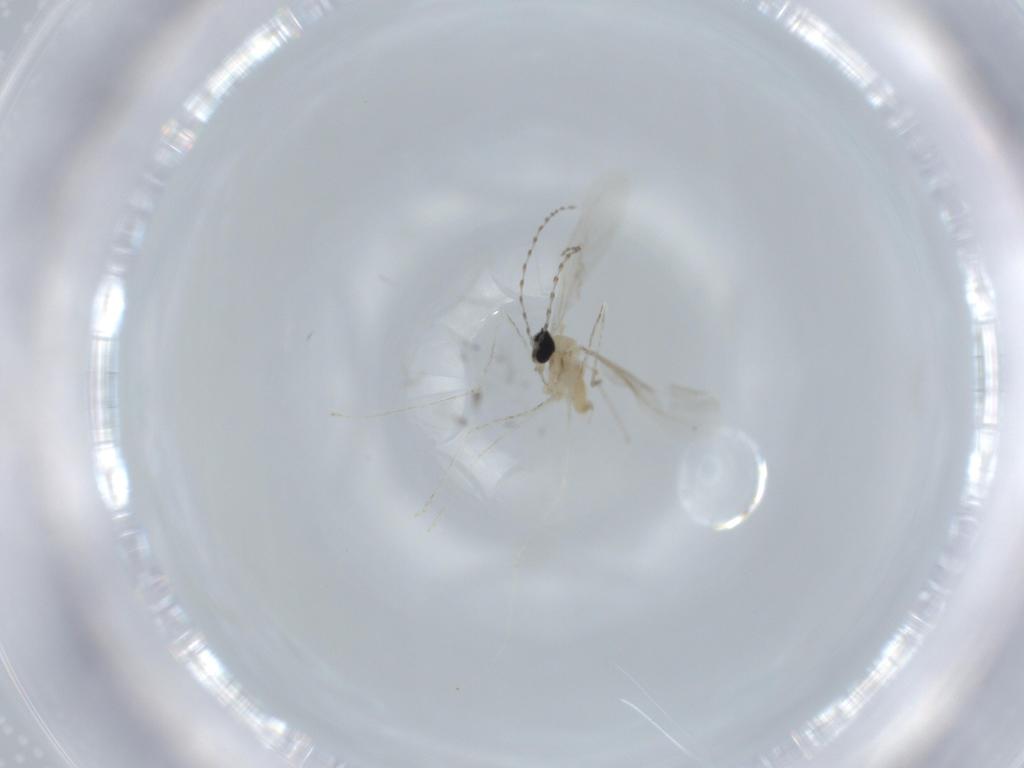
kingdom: Animalia
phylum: Arthropoda
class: Insecta
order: Diptera
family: Cecidomyiidae
